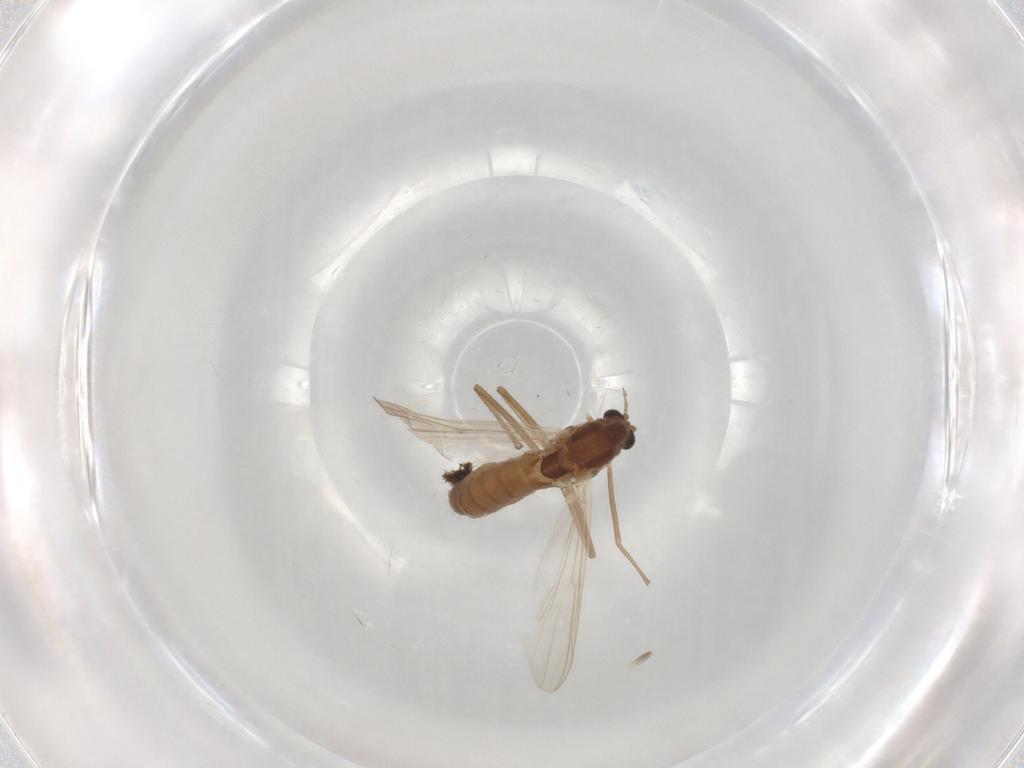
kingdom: Animalia
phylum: Arthropoda
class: Insecta
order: Diptera
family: Chironomidae
